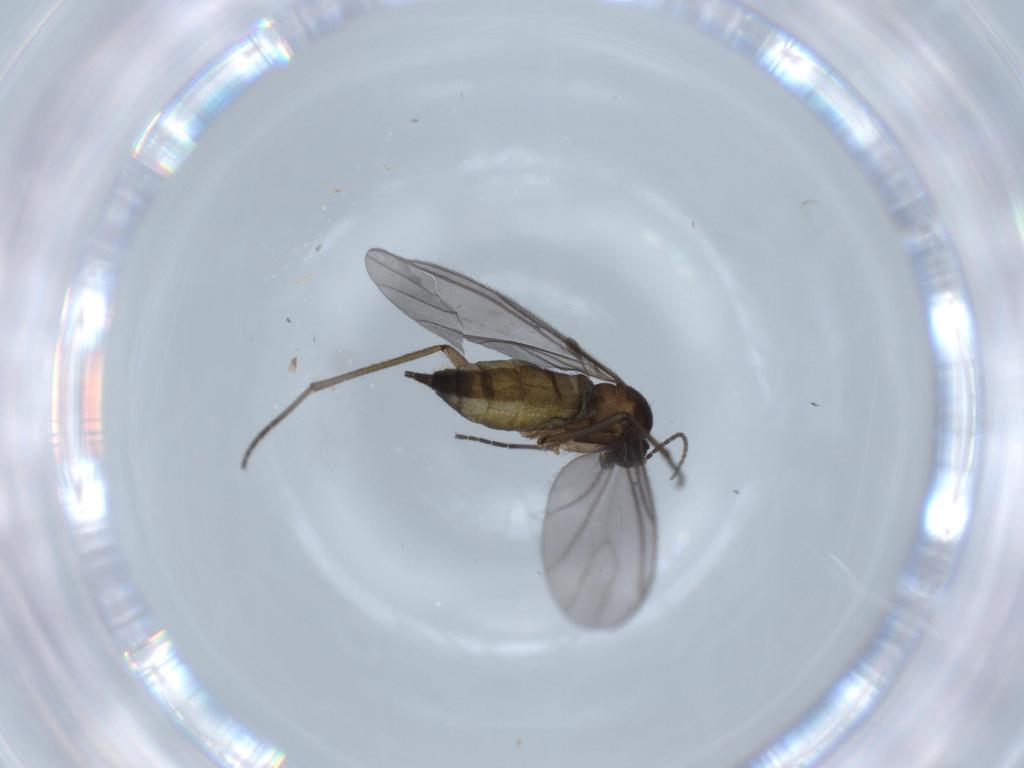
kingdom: Animalia
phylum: Arthropoda
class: Insecta
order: Diptera
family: Sciaridae
